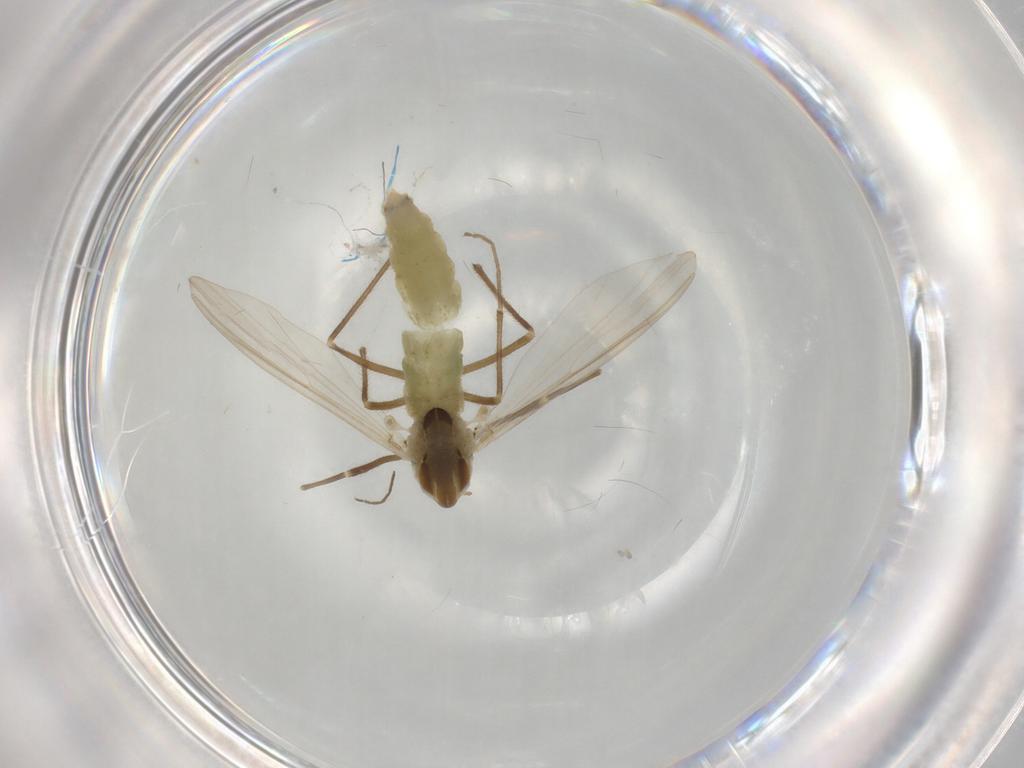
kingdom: Animalia
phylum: Arthropoda
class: Insecta
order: Diptera
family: Chironomidae
